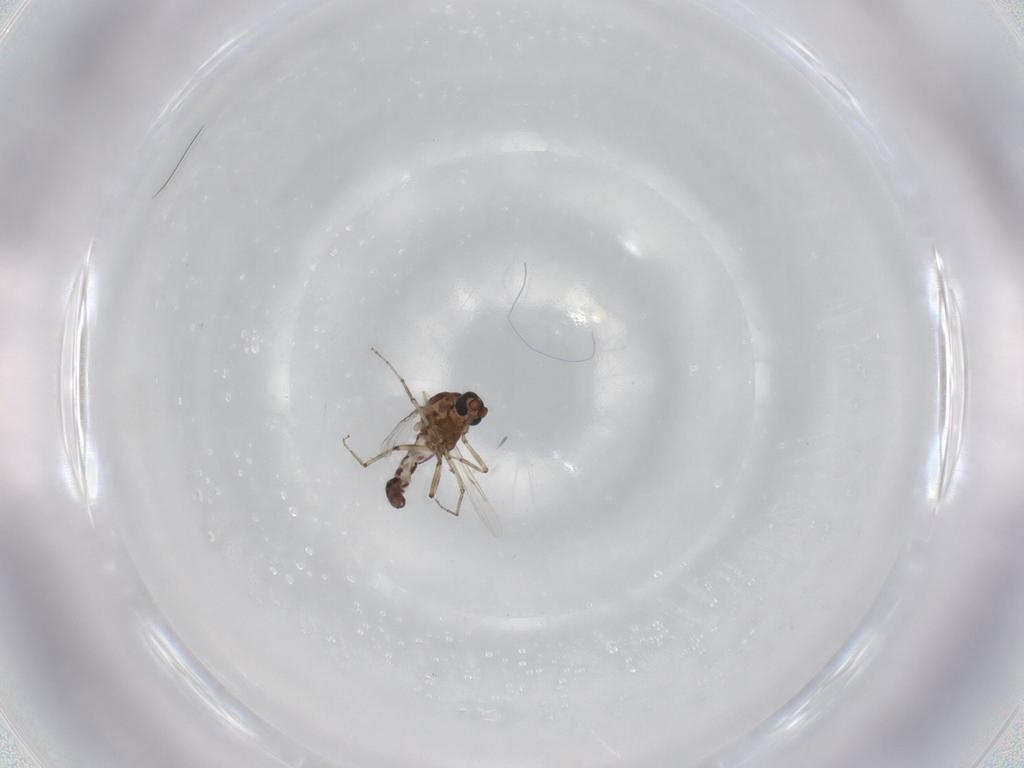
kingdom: Animalia
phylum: Arthropoda
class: Insecta
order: Diptera
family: Ceratopogonidae
